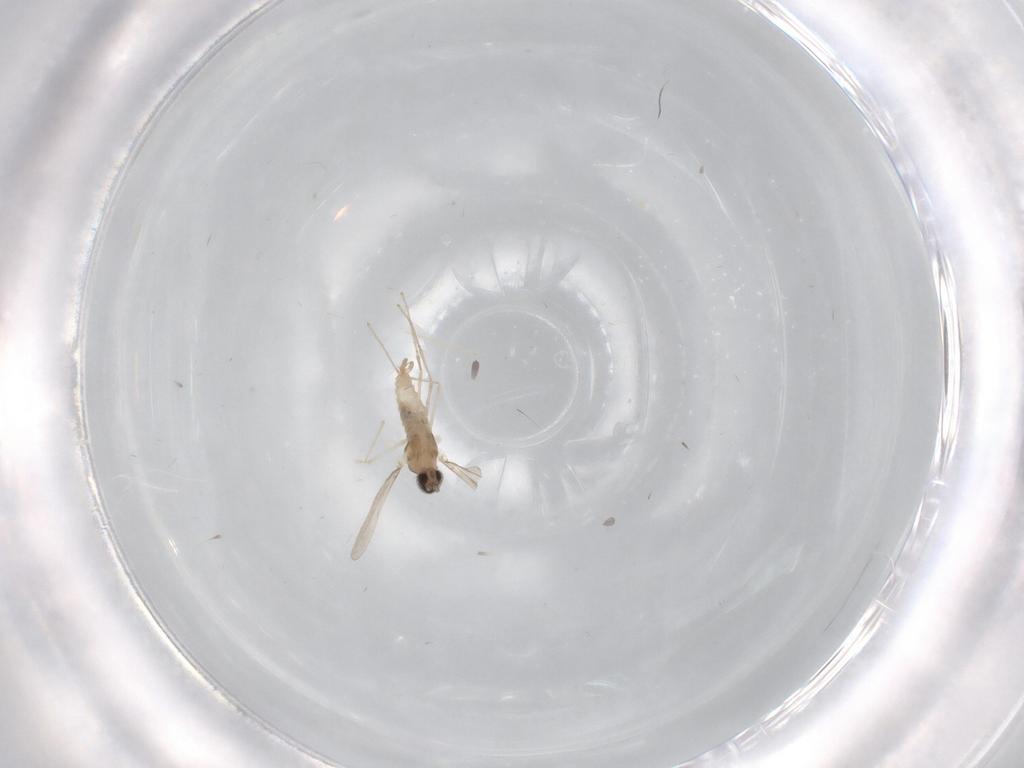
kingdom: Animalia
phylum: Arthropoda
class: Insecta
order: Diptera
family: Cecidomyiidae
